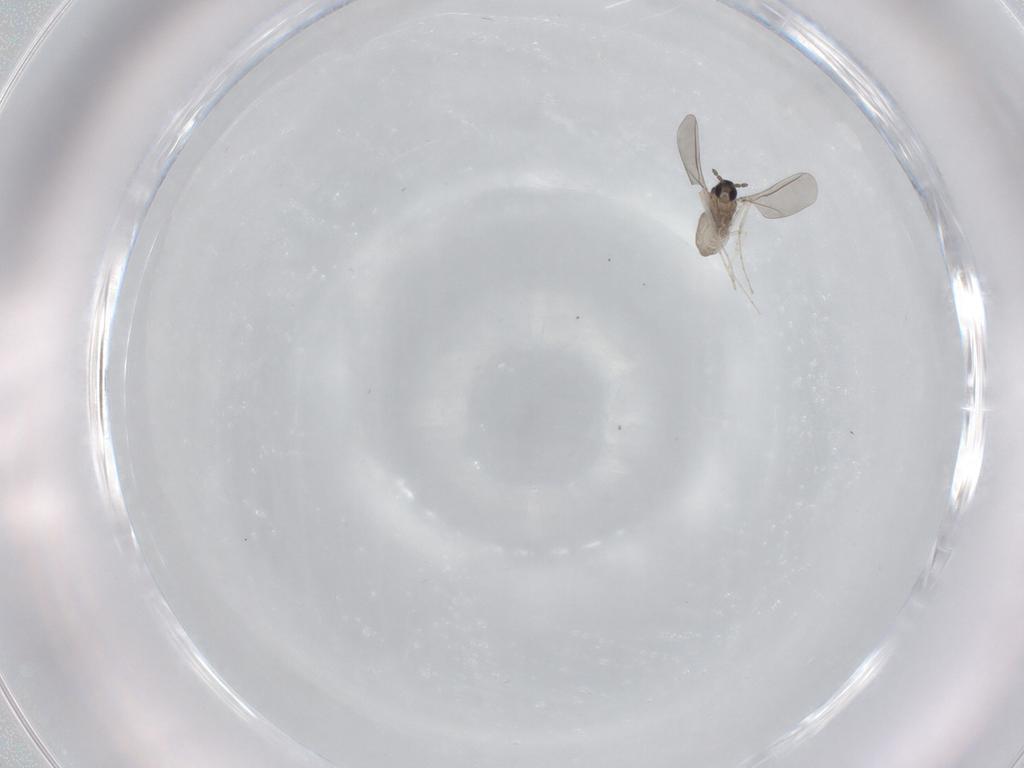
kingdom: Animalia
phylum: Arthropoda
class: Insecta
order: Diptera
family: Cecidomyiidae
